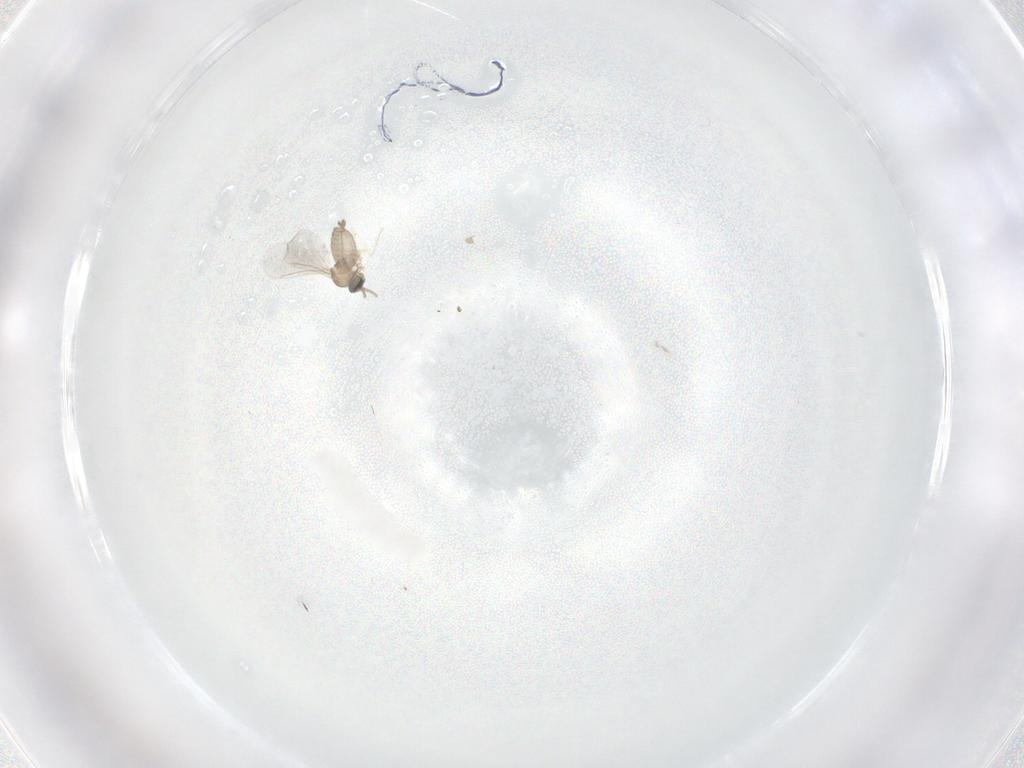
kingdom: Animalia
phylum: Arthropoda
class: Insecta
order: Diptera
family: Cecidomyiidae
